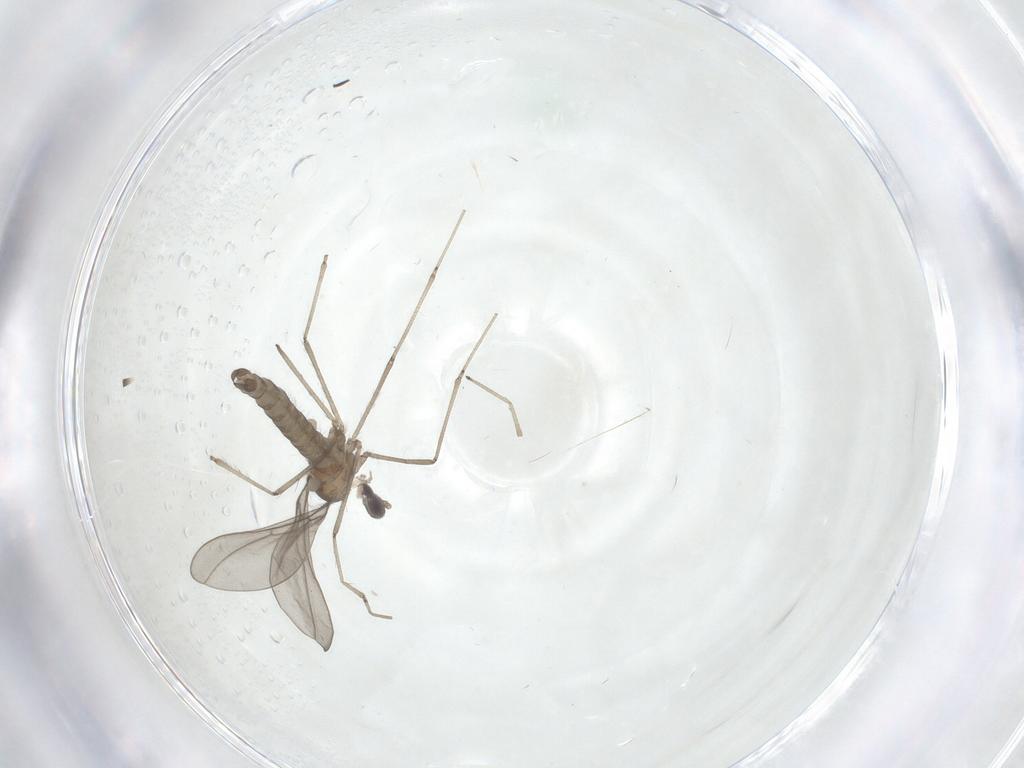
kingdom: Animalia
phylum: Arthropoda
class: Insecta
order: Diptera
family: Cecidomyiidae
